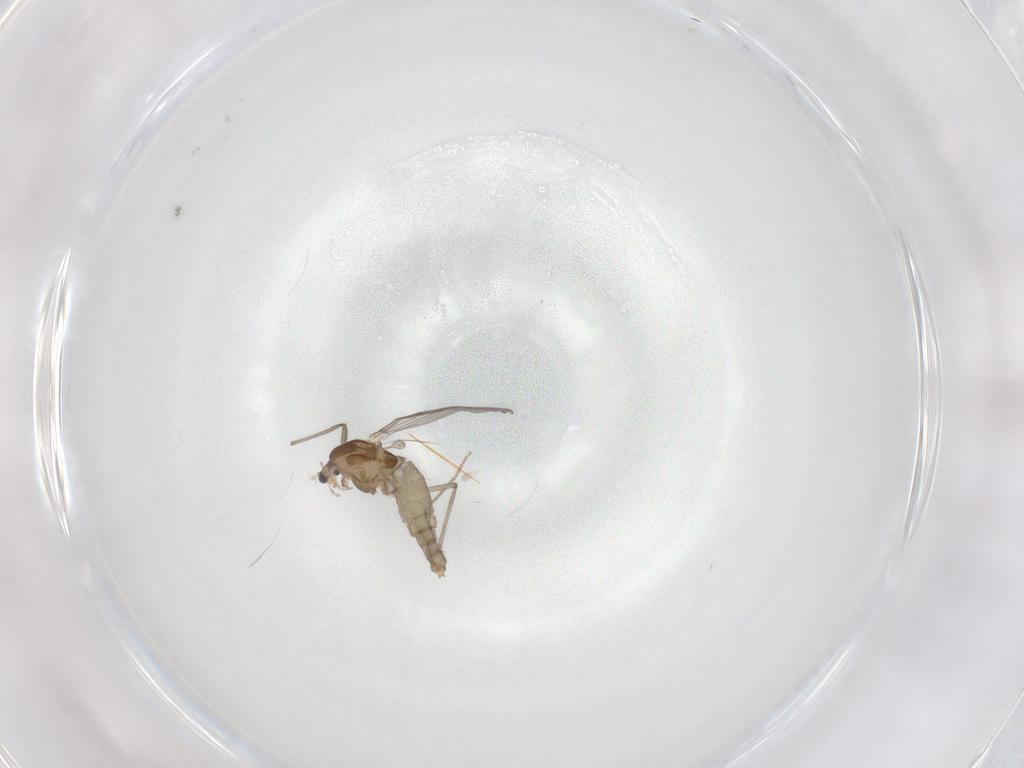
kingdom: Animalia
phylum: Arthropoda
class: Insecta
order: Diptera
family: Chironomidae
